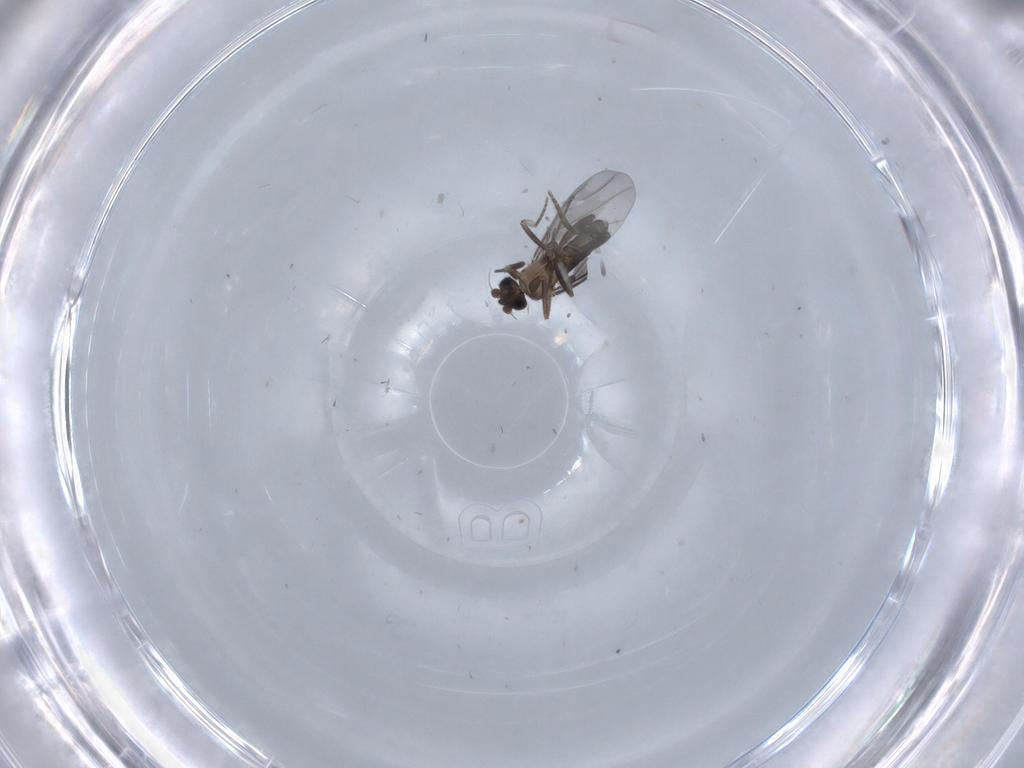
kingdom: Animalia
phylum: Arthropoda
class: Insecta
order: Diptera
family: Phoridae
